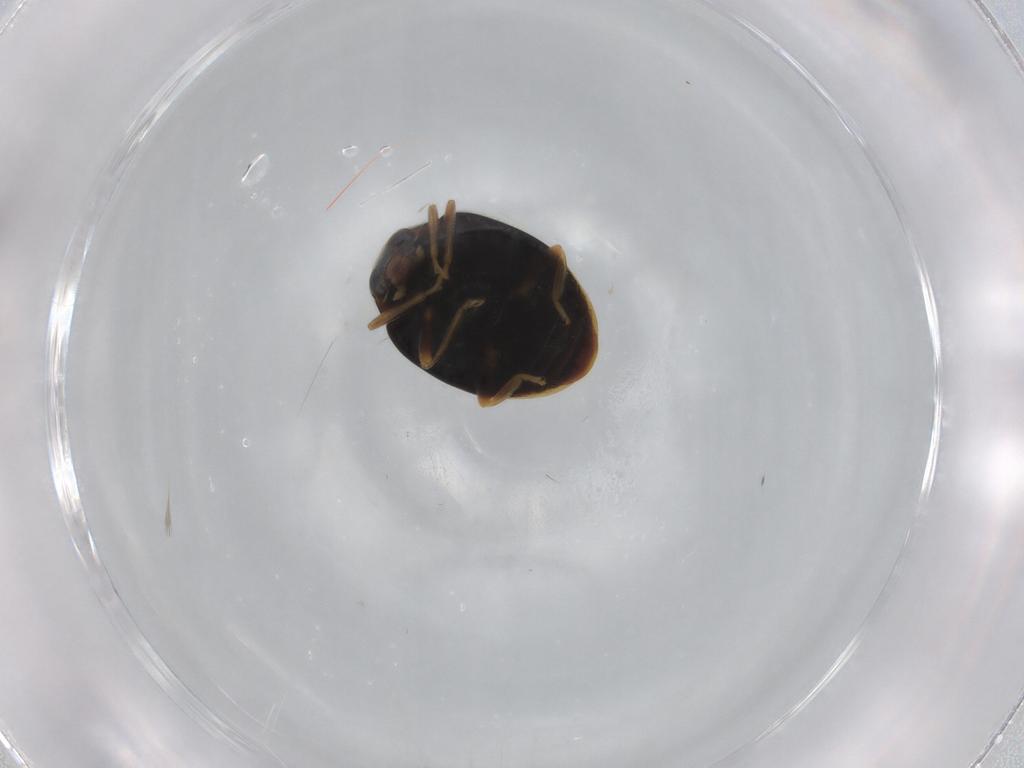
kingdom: Animalia
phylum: Arthropoda
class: Insecta
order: Coleoptera
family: Coccinellidae
